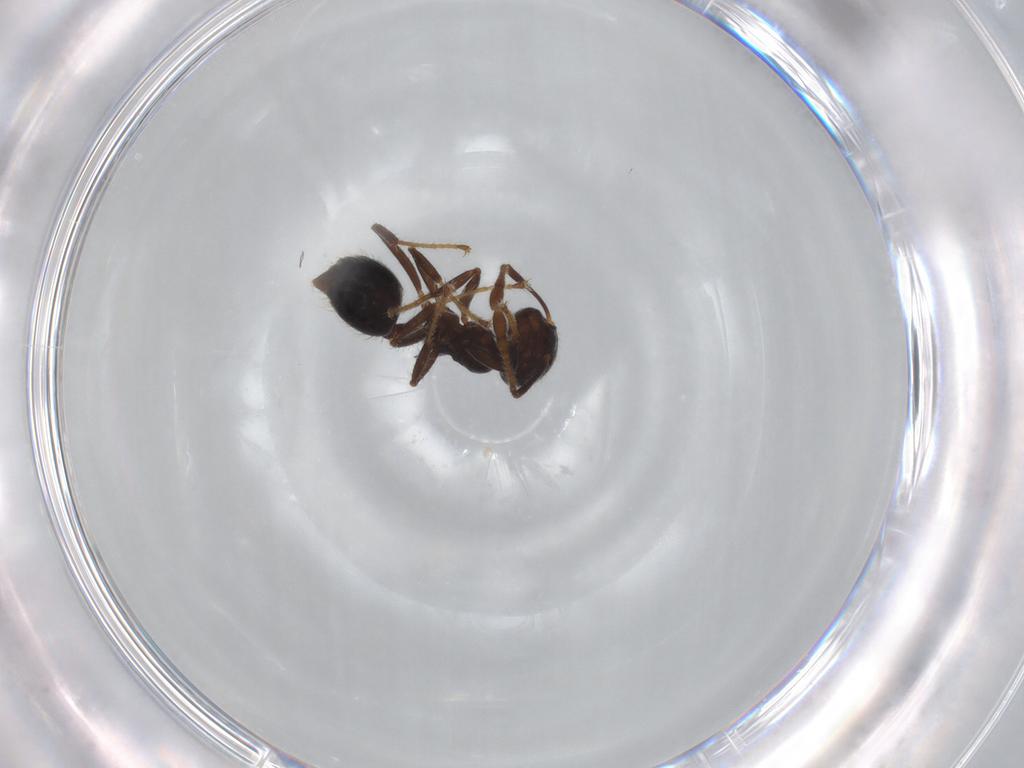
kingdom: Animalia
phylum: Arthropoda
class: Insecta
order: Hymenoptera
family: Formicidae
